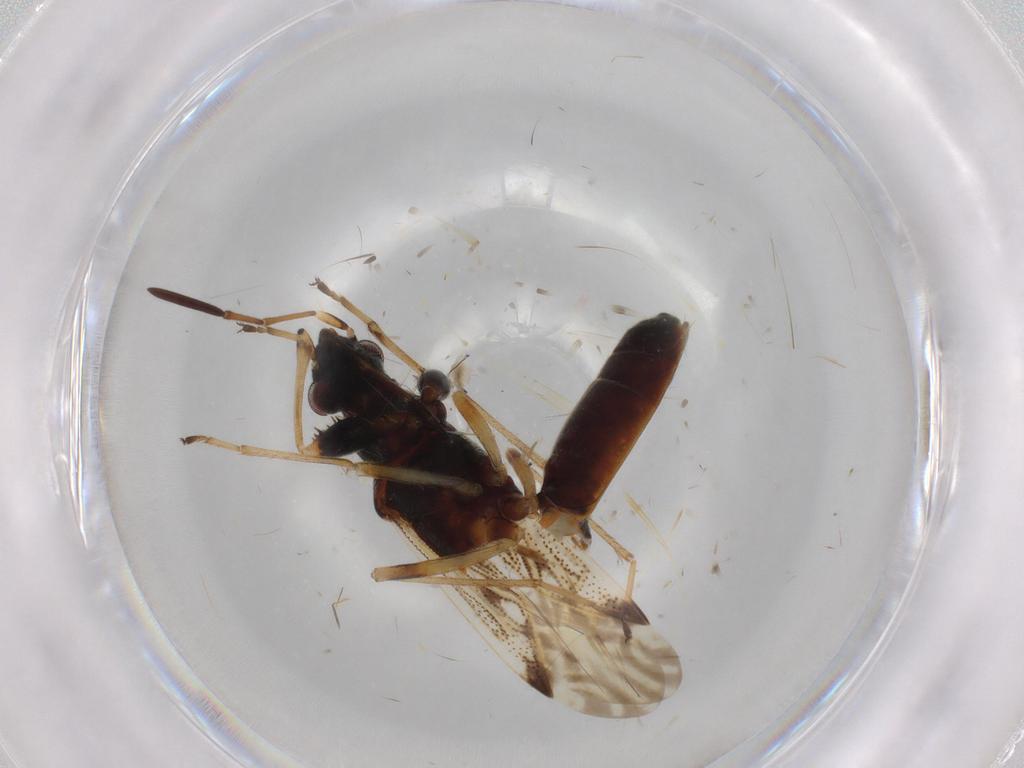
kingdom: Animalia
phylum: Arthropoda
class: Insecta
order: Hemiptera
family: Rhyparochromidae
